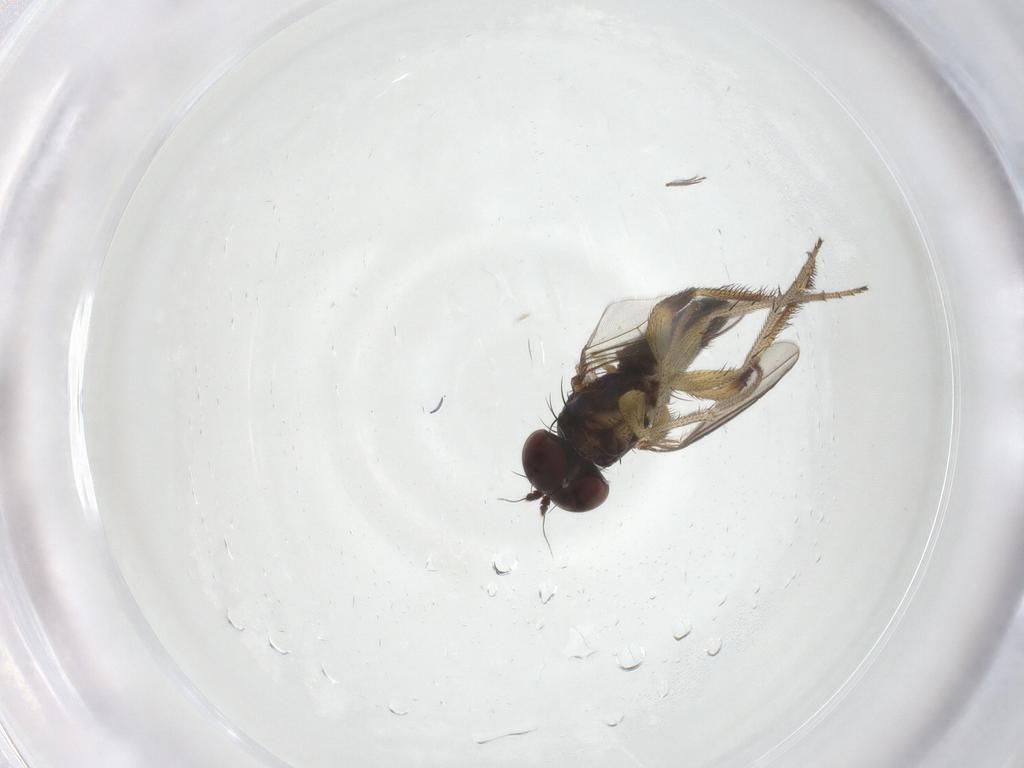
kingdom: Animalia
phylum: Arthropoda
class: Insecta
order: Diptera
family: Dolichopodidae
